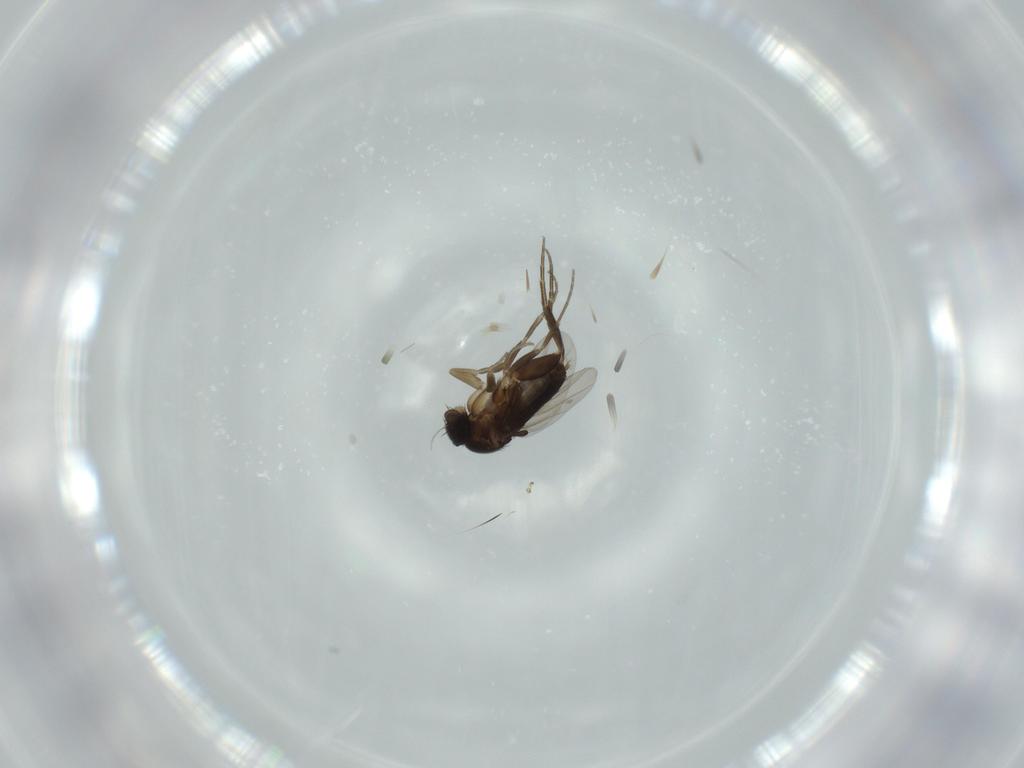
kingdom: Animalia
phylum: Arthropoda
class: Insecta
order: Diptera
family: Phoridae
